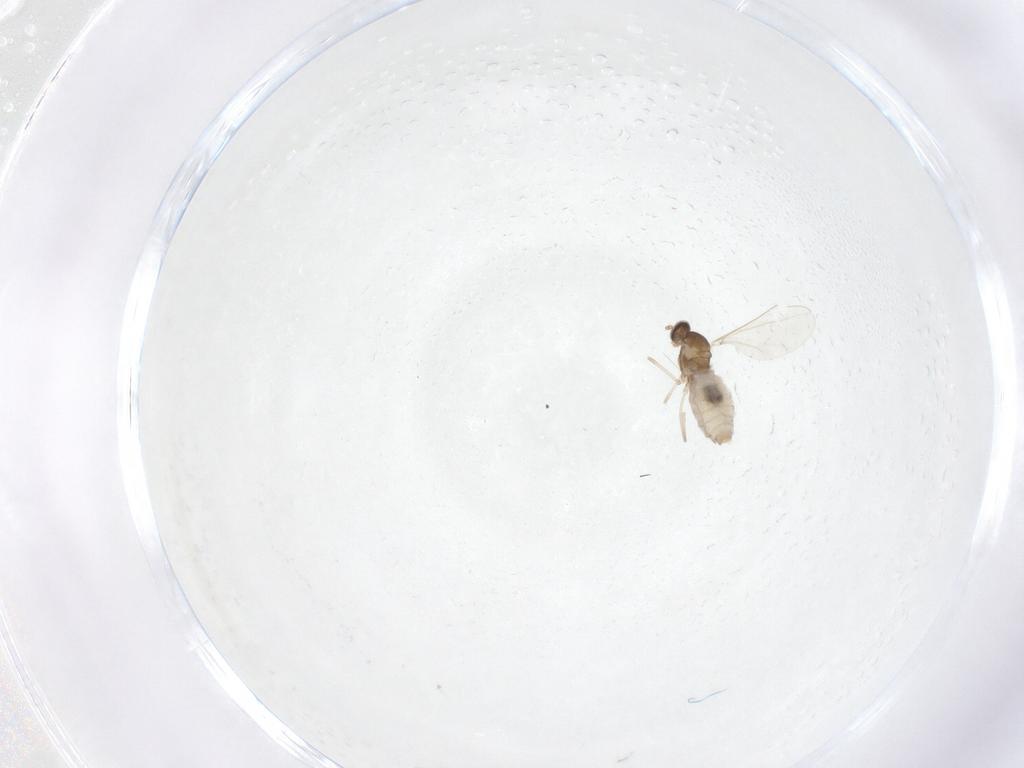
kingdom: Animalia
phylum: Arthropoda
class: Insecta
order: Diptera
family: Cecidomyiidae
